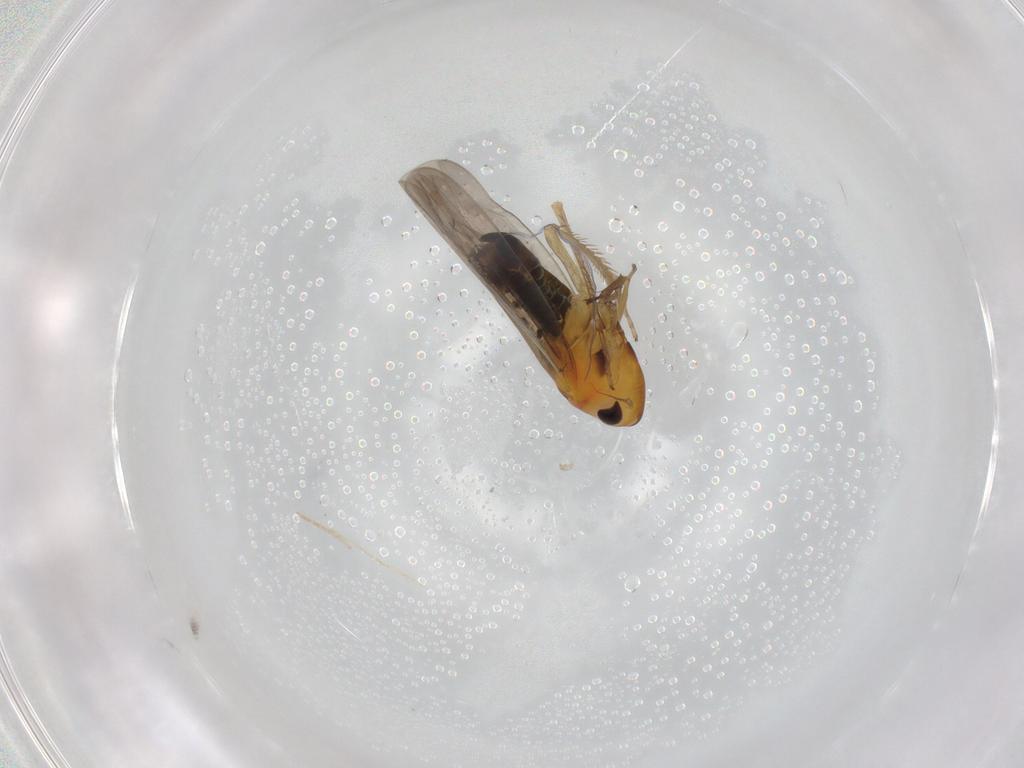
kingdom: Animalia
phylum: Arthropoda
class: Insecta
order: Hemiptera
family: Cicadellidae
